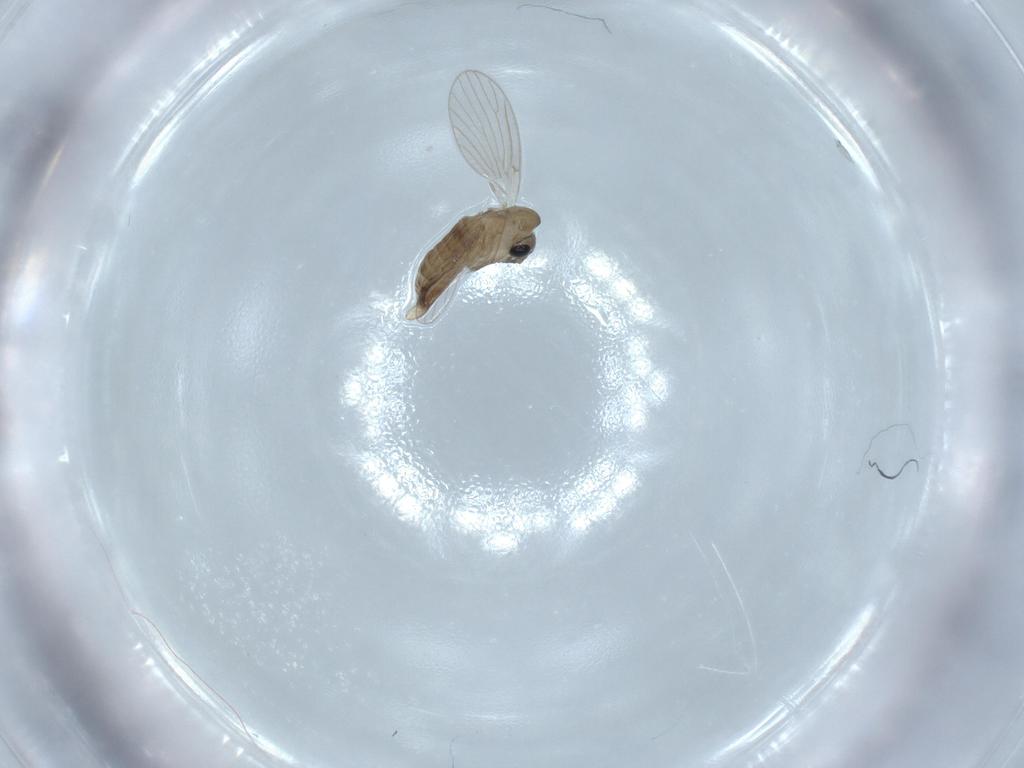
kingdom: Animalia
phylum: Arthropoda
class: Insecta
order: Diptera
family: Psychodidae
